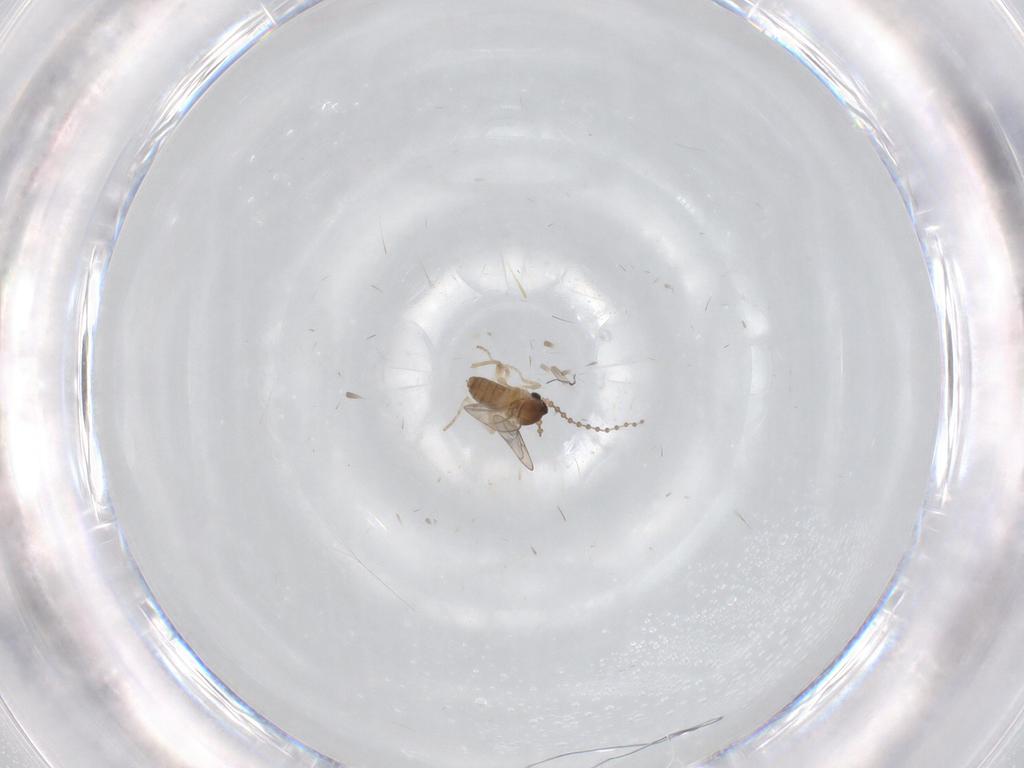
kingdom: Animalia
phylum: Arthropoda
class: Insecta
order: Diptera
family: Cecidomyiidae
